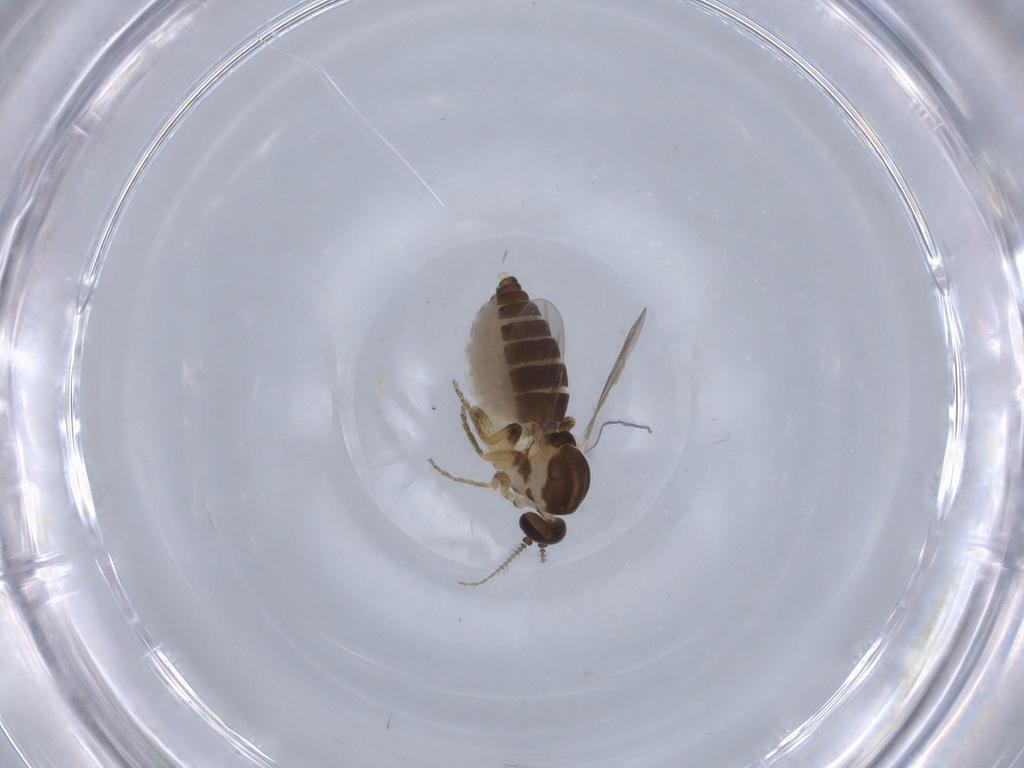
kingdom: Animalia
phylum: Arthropoda
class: Insecta
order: Diptera
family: Ceratopogonidae
